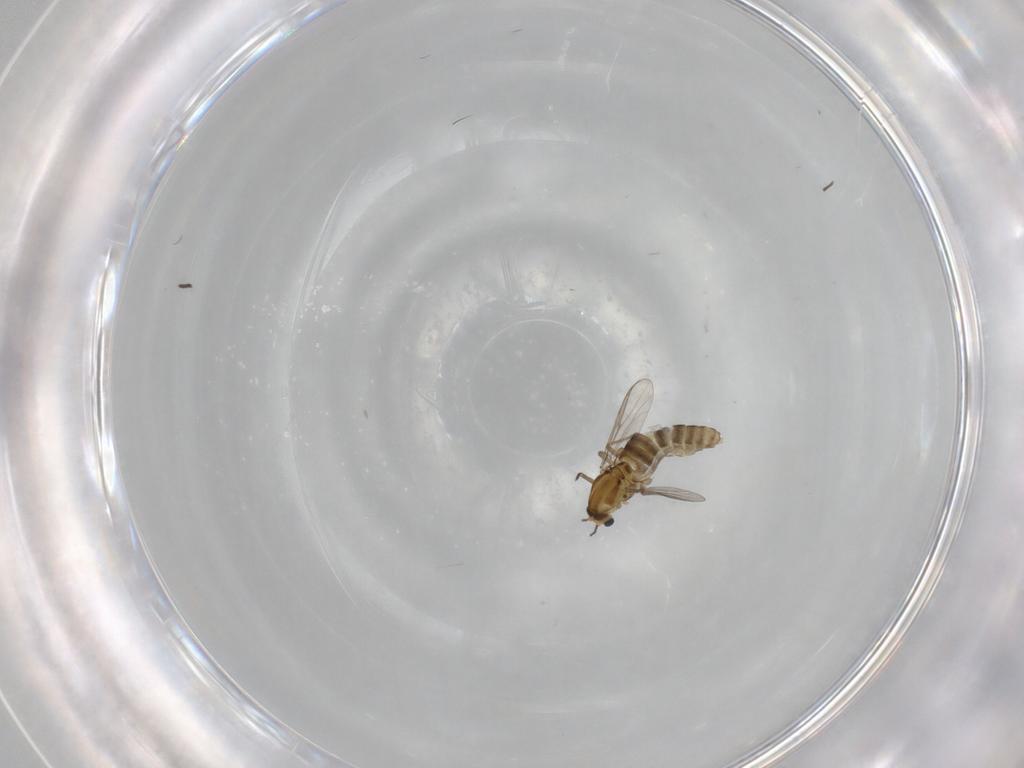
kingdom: Animalia
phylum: Arthropoda
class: Insecta
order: Diptera
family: Chironomidae
